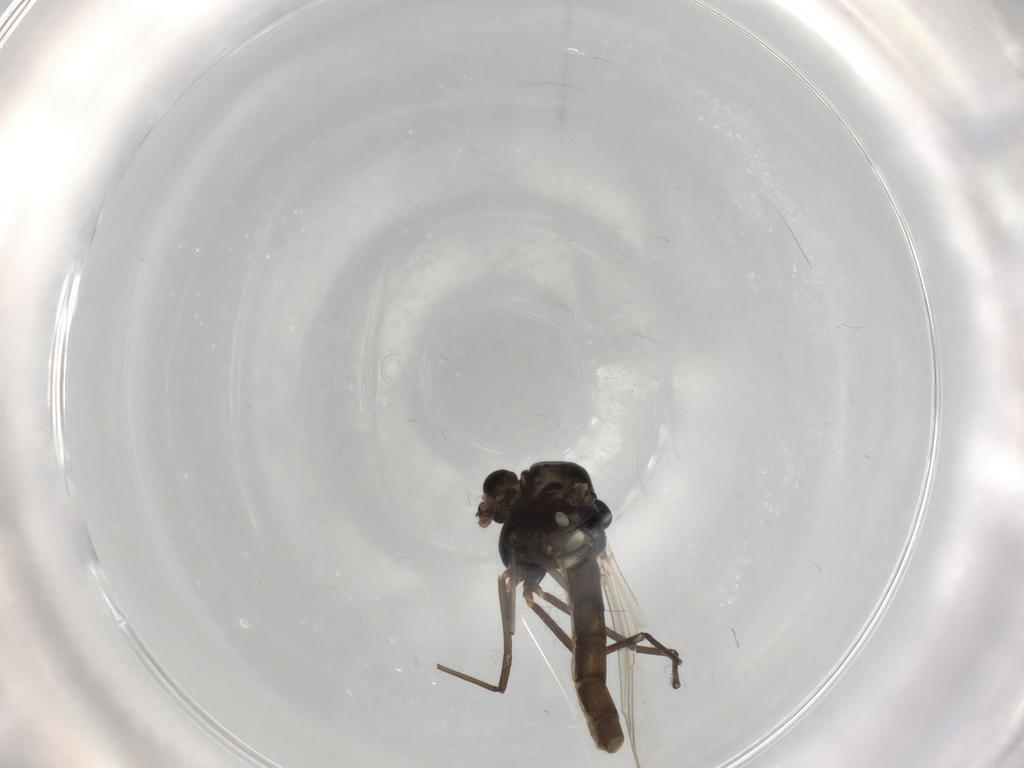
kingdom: Animalia
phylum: Arthropoda
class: Insecta
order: Diptera
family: Chironomidae
